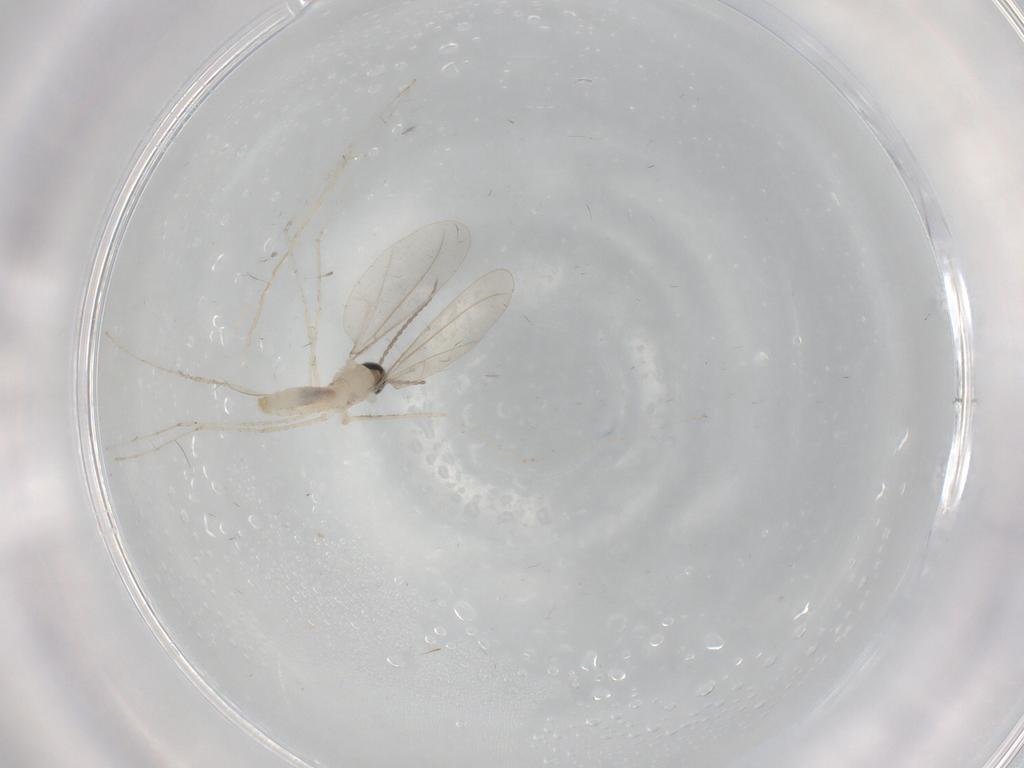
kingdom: Animalia
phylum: Arthropoda
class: Insecta
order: Diptera
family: Cecidomyiidae
